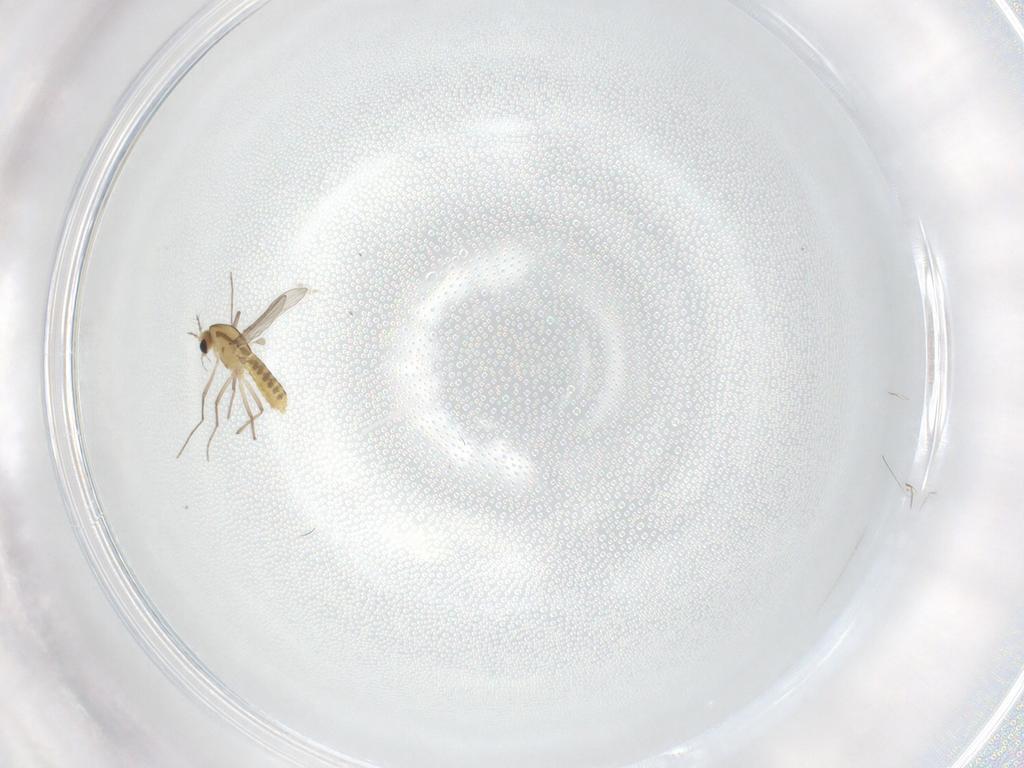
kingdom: Animalia
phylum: Arthropoda
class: Insecta
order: Diptera
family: Chironomidae
